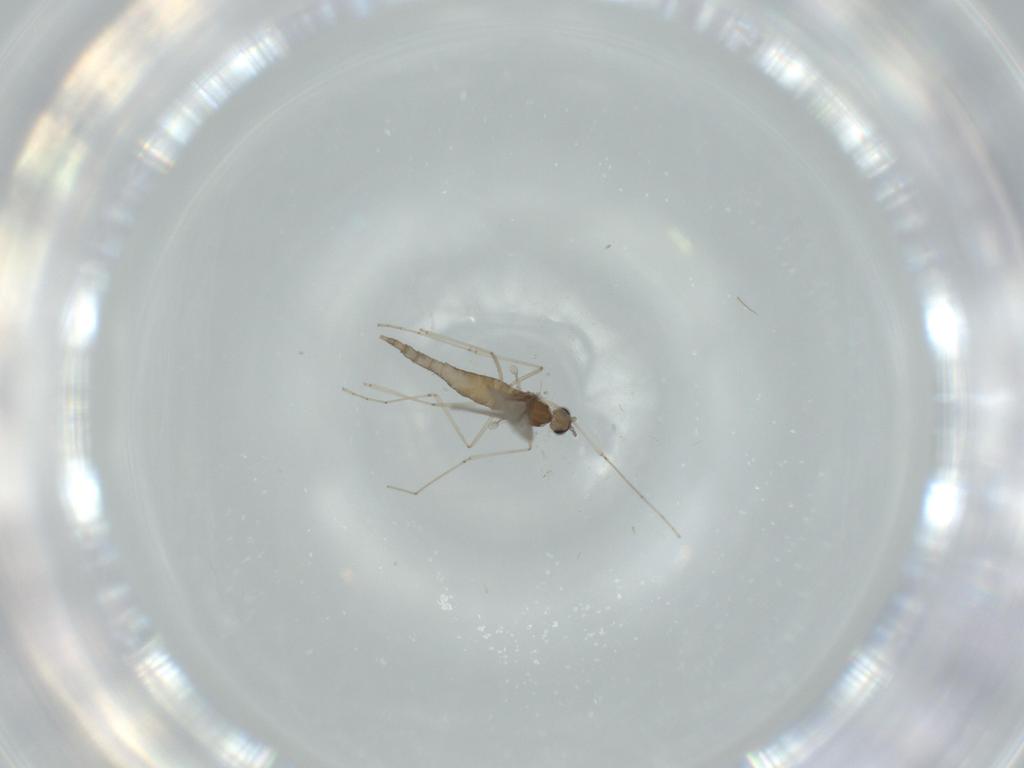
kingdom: Animalia
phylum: Arthropoda
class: Insecta
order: Diptera
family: Cecidomyiidae
